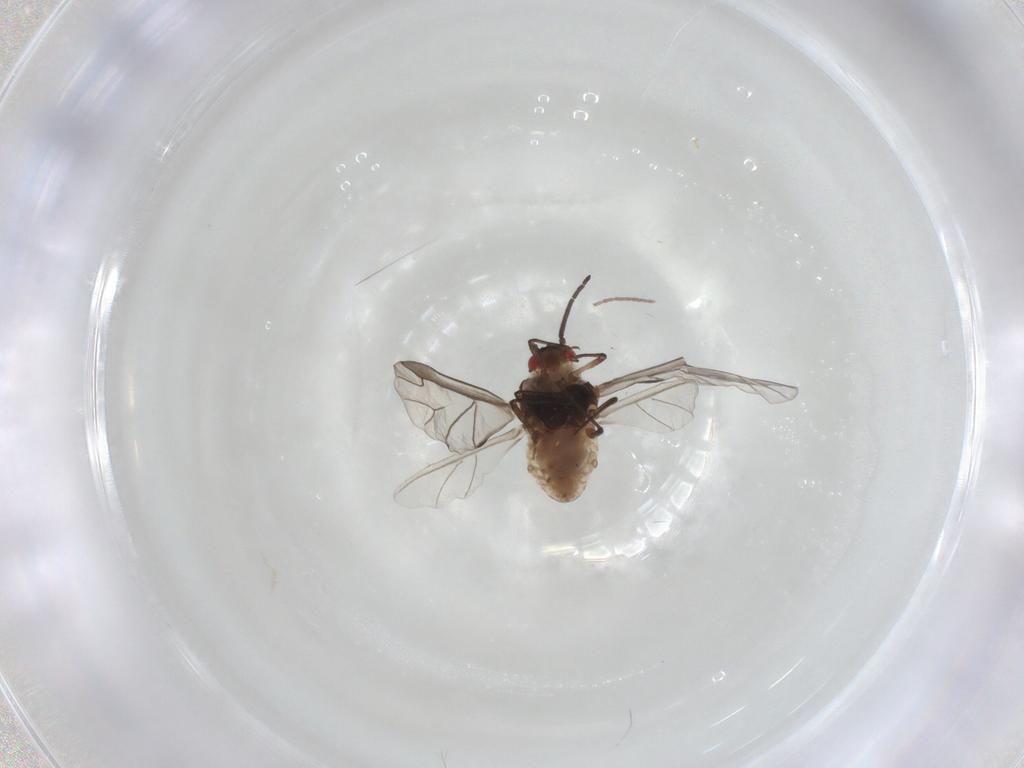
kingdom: Animalia
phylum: Arthropoda
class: Insecta
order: Hemiptera
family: Aphididae
